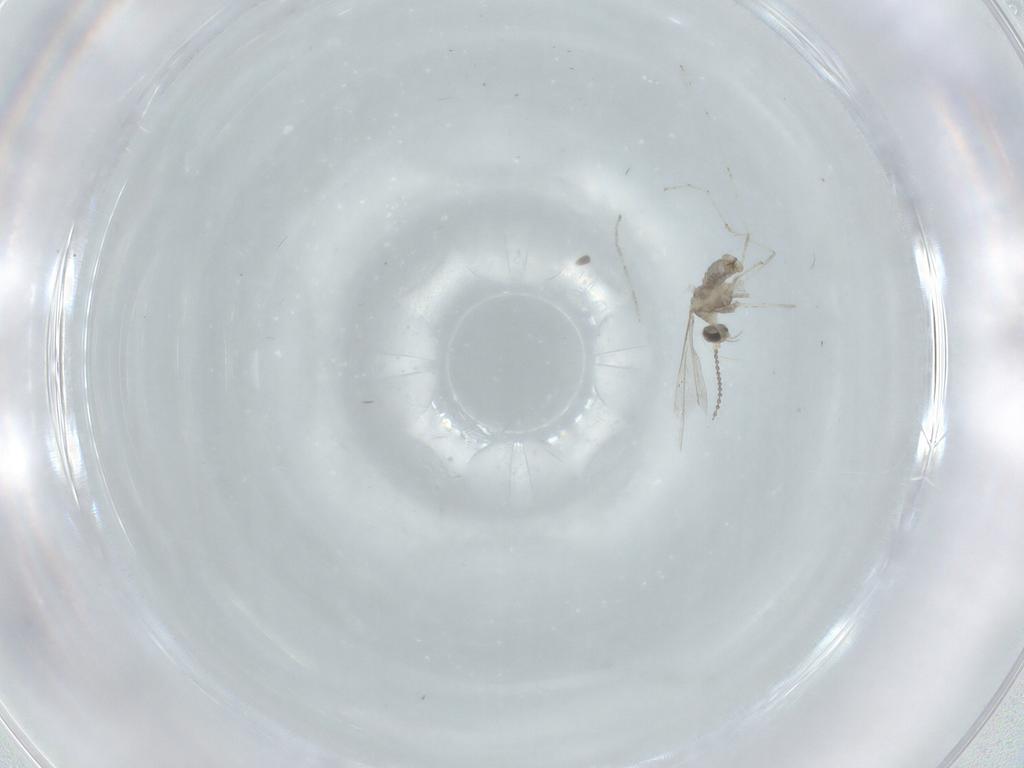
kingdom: Animalia
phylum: Arthropoda
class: Insecta
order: Diptera
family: Cecidomyiidae
